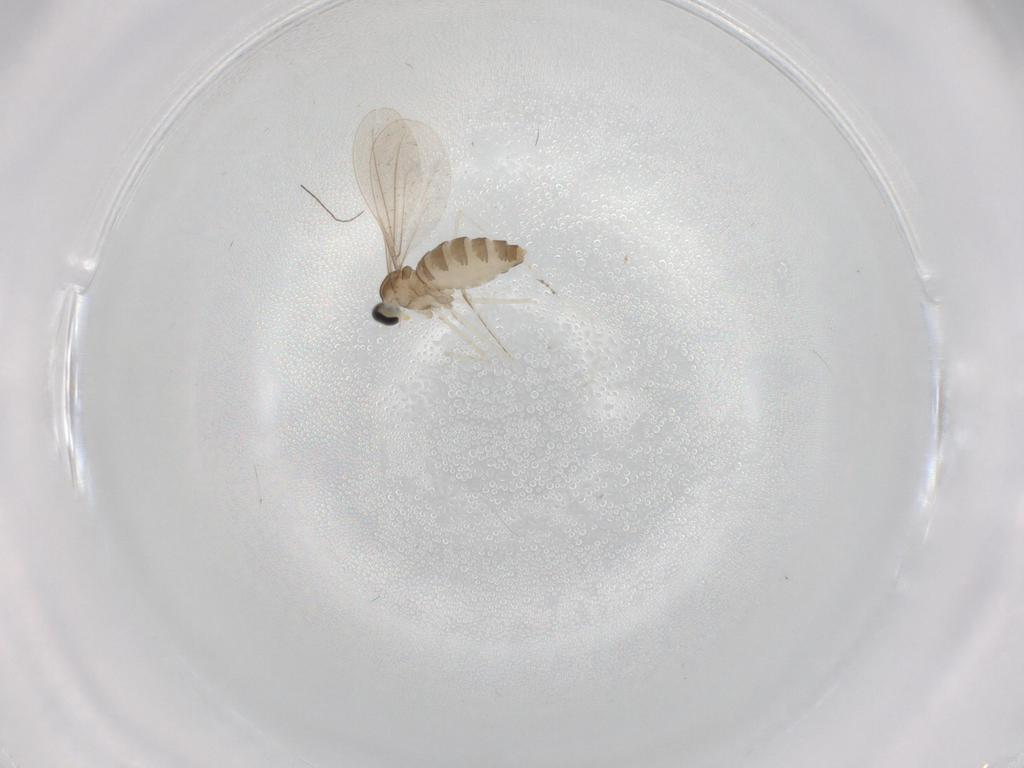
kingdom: Animalia
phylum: Arthropoda
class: Insecta
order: Diptera
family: Cecidomyiidae
